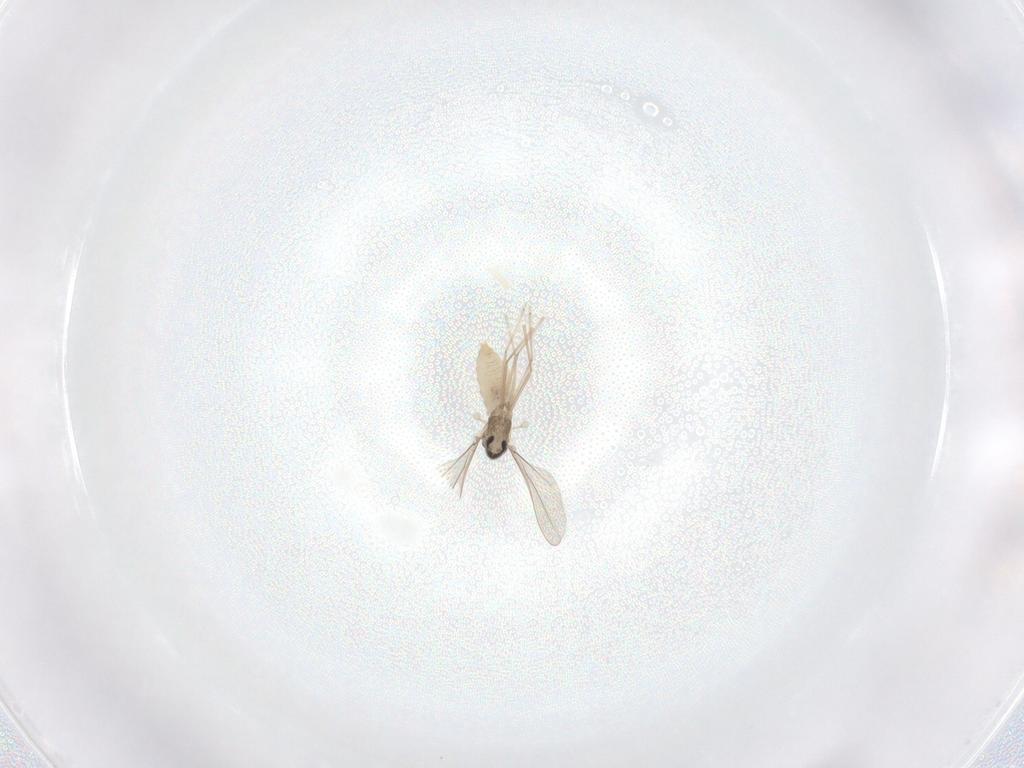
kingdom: Animalia
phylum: Arthropoda
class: Insecta
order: Diptera
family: Cecidomyiidae
